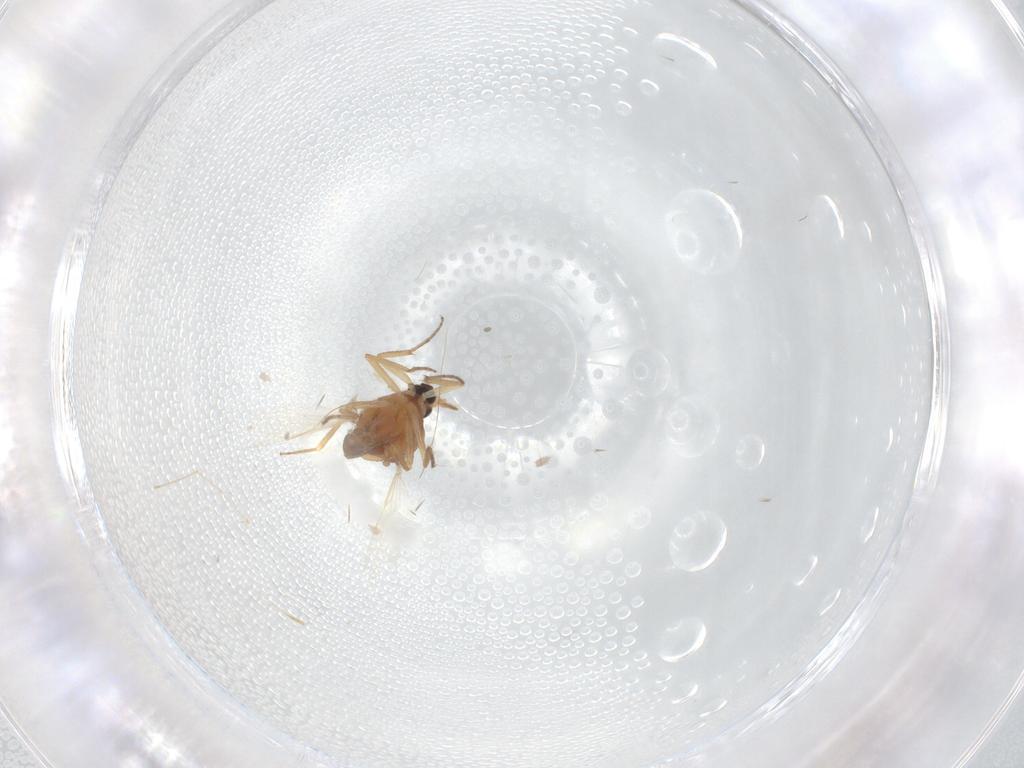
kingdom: Animalia
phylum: Arthropoda
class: Insecta
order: Diptera
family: Ceratopogonidae
